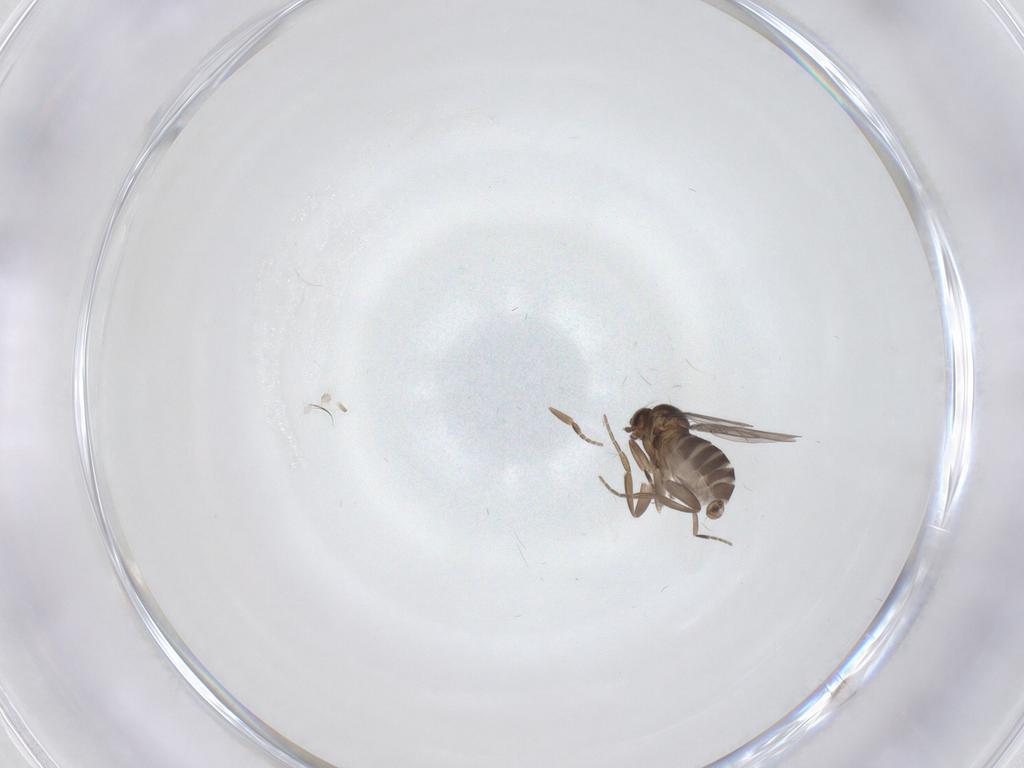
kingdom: Animalia
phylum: Arthropoda
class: Insecta
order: Diptera
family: Phoridae
